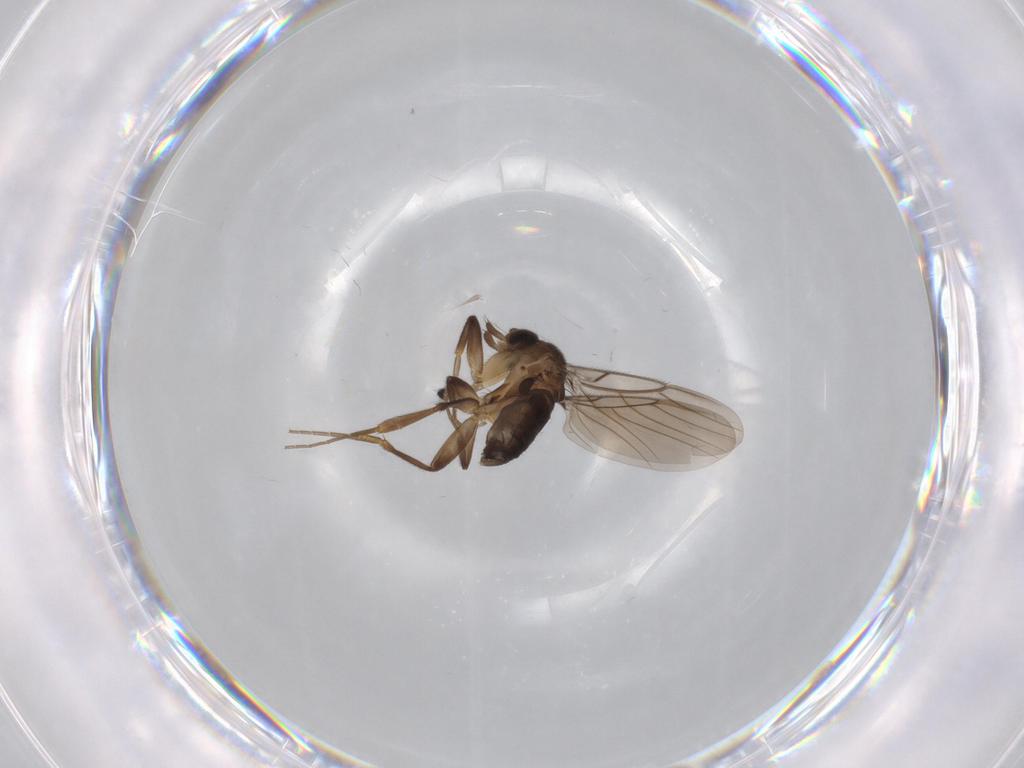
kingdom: Animalia
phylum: Arthropoda
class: Insecta
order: Diptera
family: Phoridae
